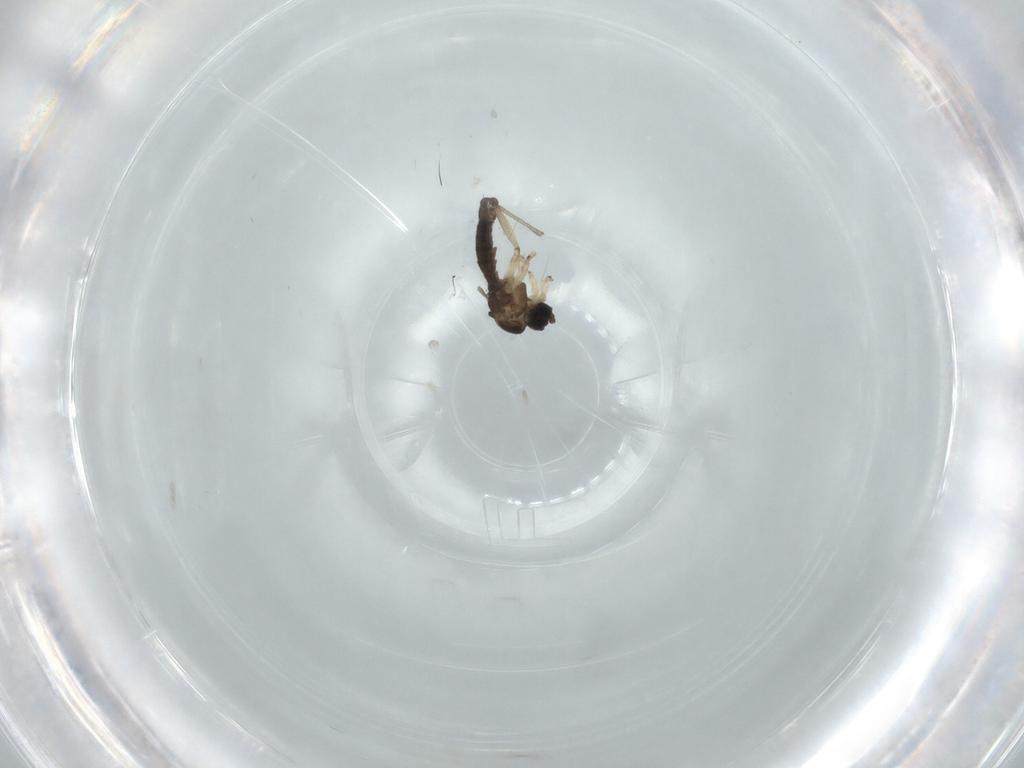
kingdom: Animalia
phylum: Arthropoda
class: Insecta
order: Diptera
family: Sciaridae
